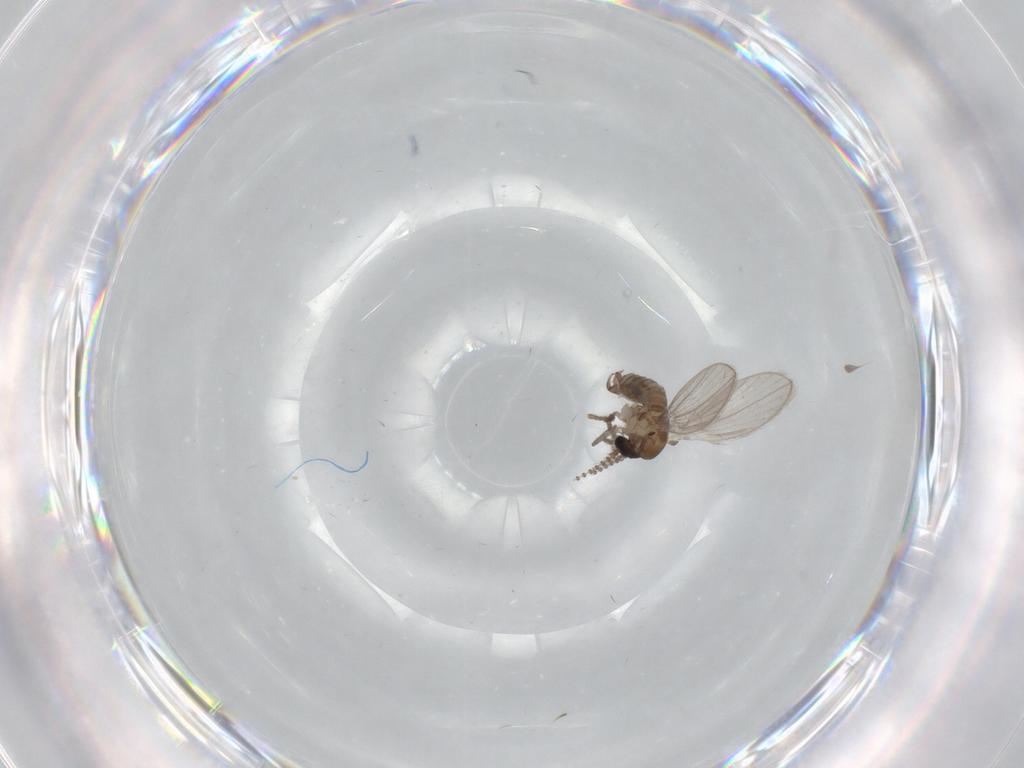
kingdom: Animalia
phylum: Arthropoda
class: Insecta
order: Diptera
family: Psychodidae
